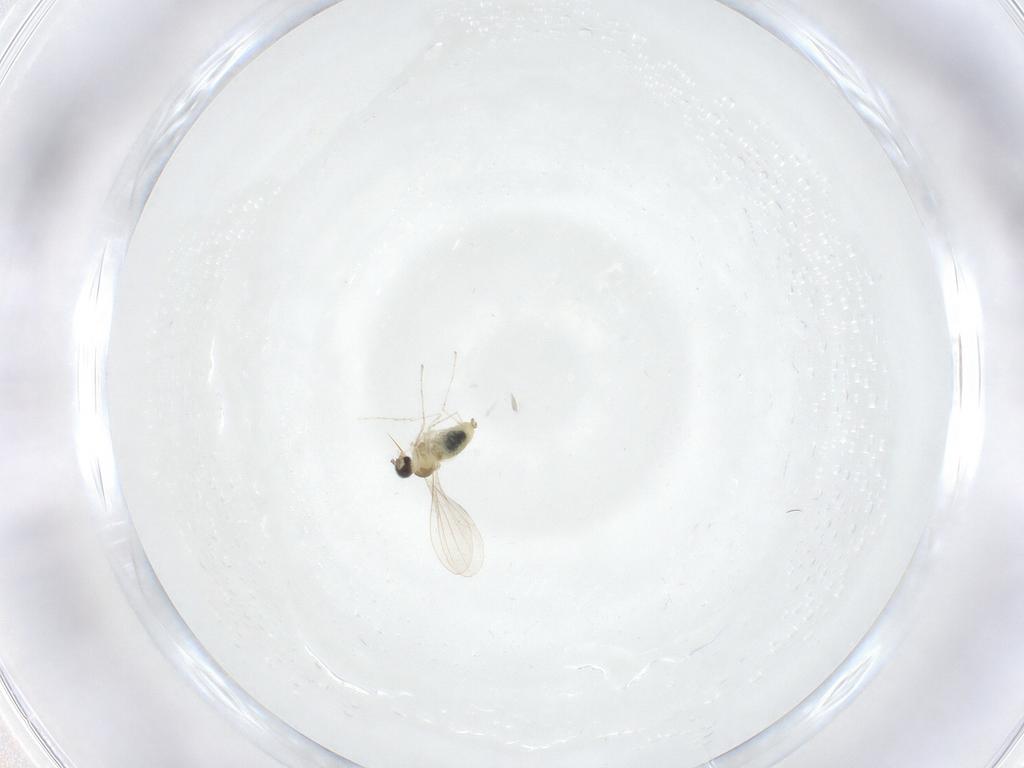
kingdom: Animalia
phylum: Arthropoda
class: Insecta
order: Diptera
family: Cecidomyiidae
